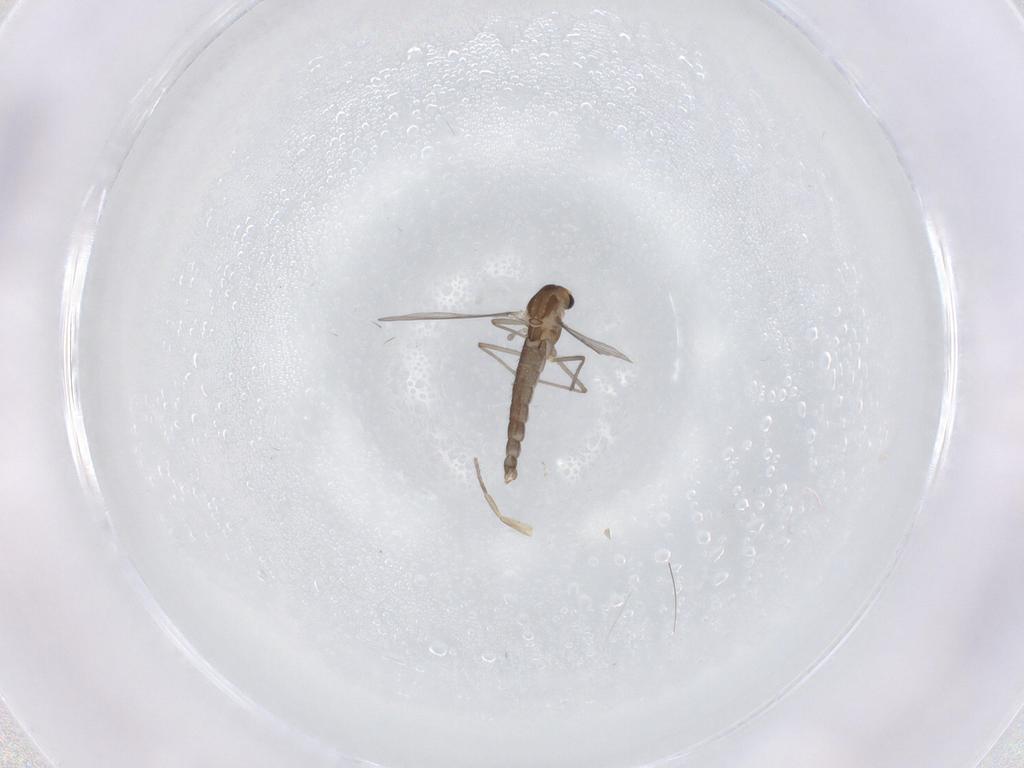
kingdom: Animalia
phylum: Arthropoda
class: Insecta
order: Diptera
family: Chironomidae
